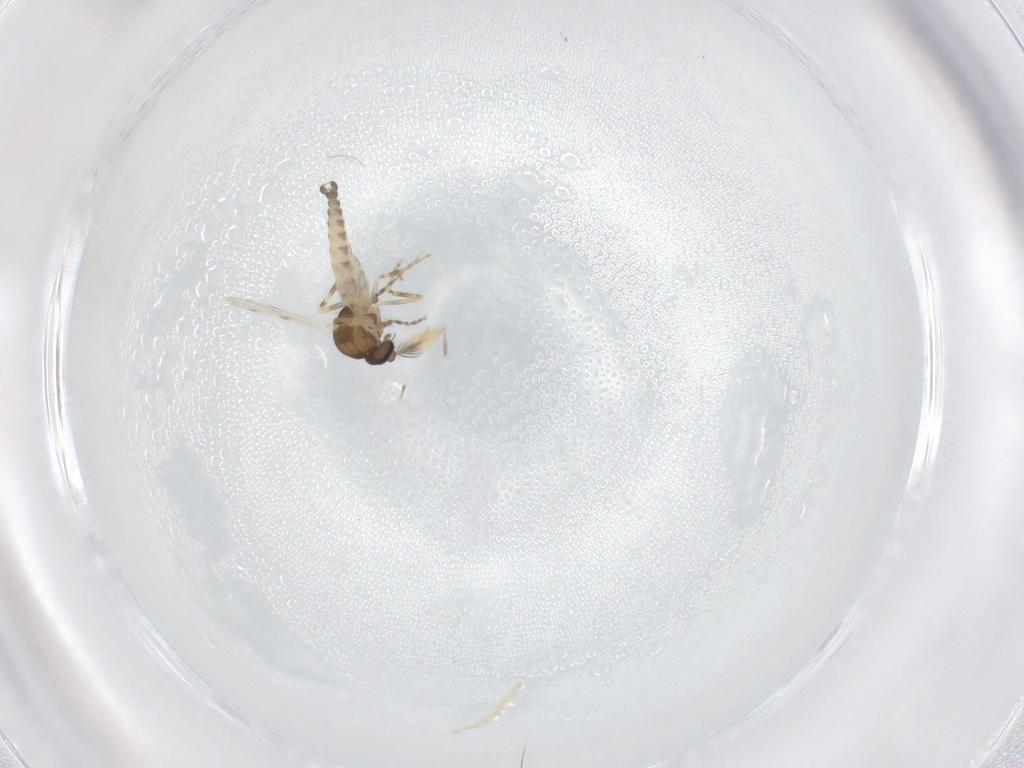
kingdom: Animalia
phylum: Arthropoda
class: Insecta
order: Diptera
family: Ceratopogonidae
